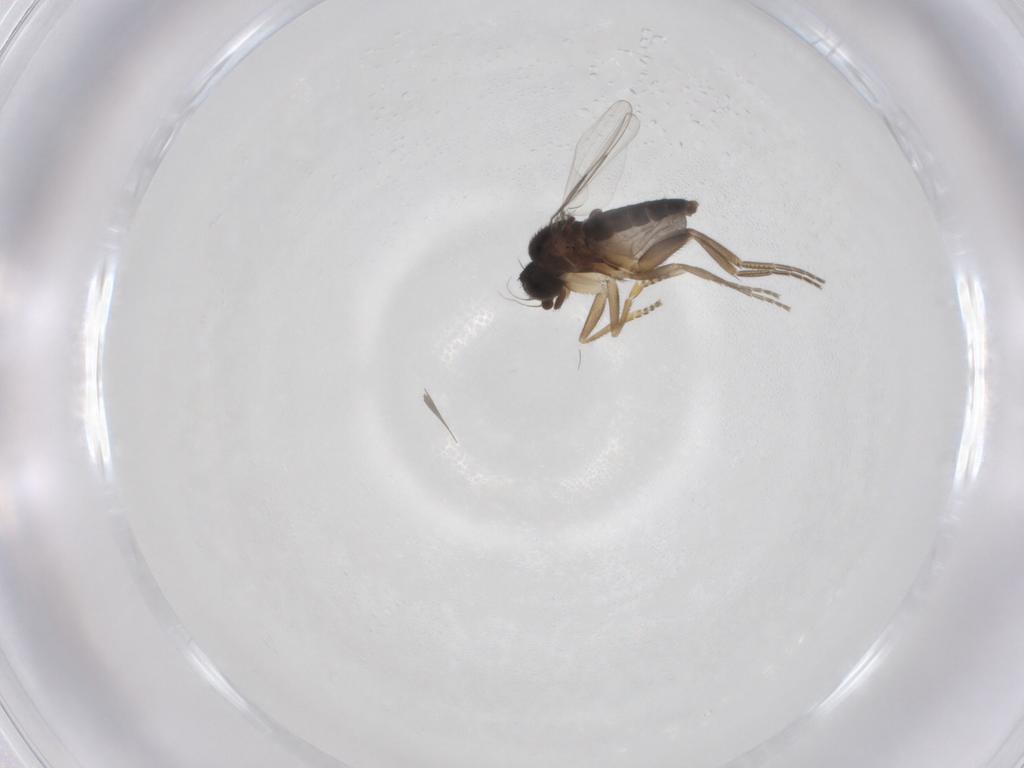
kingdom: Animalia
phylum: Arthropoda
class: Insecta
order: Diptera
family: Phoridae
